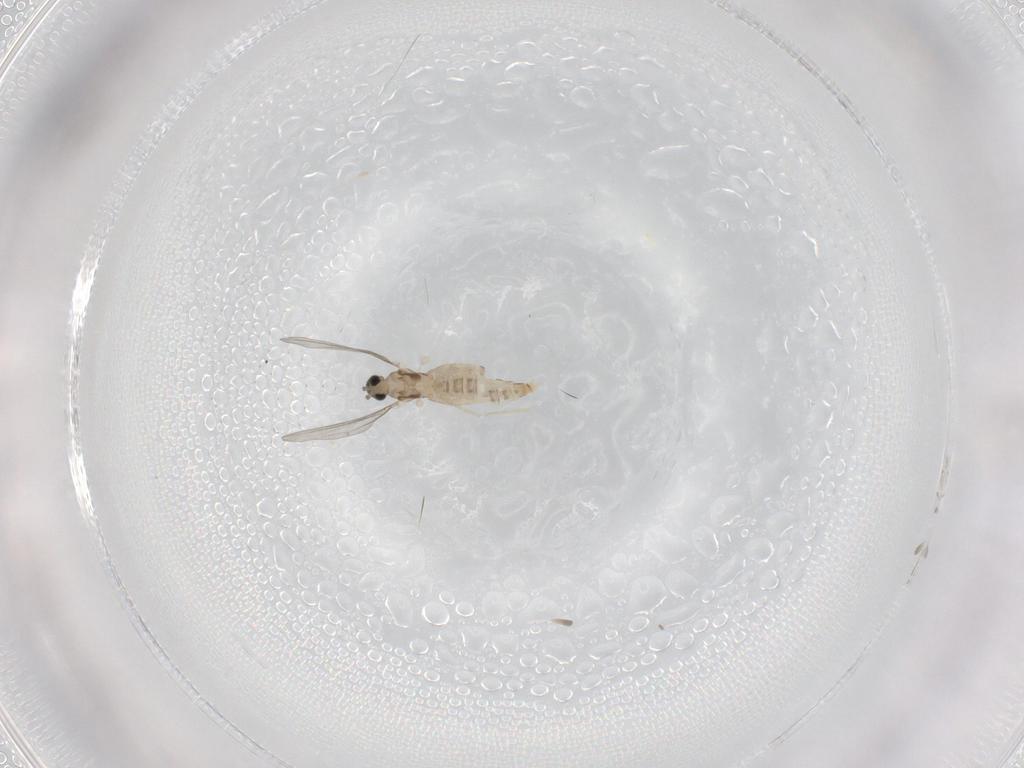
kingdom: Animalia
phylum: Arthropoda
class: Insecta
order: Diptera
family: Cecidomyiidae
